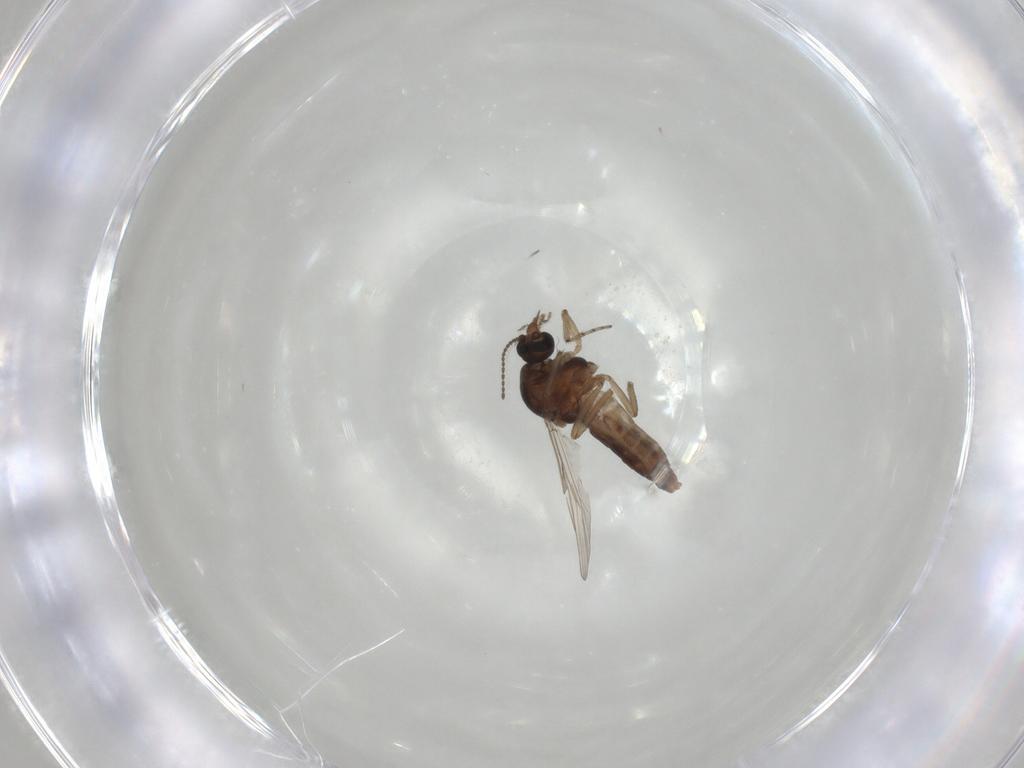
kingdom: Animalia
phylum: Arthropoda
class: Insecta
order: Diptera
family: Ceratopogonidae
